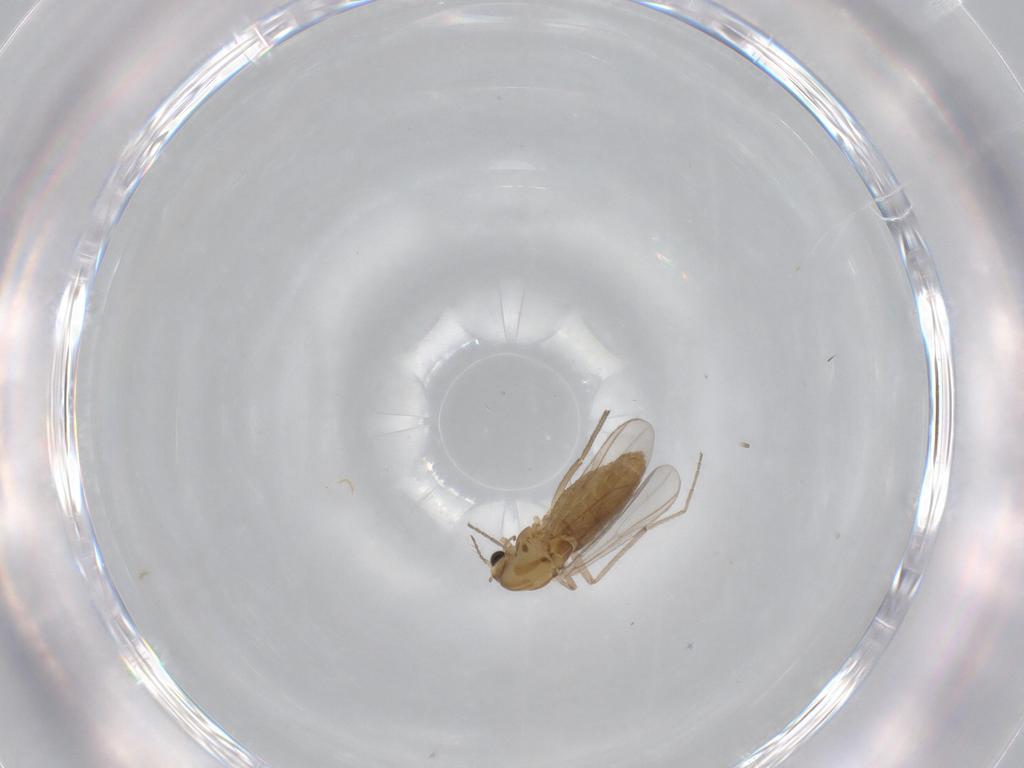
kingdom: Animalia
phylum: Arthropoda
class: Insecta
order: Diptera
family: Chironomidae
